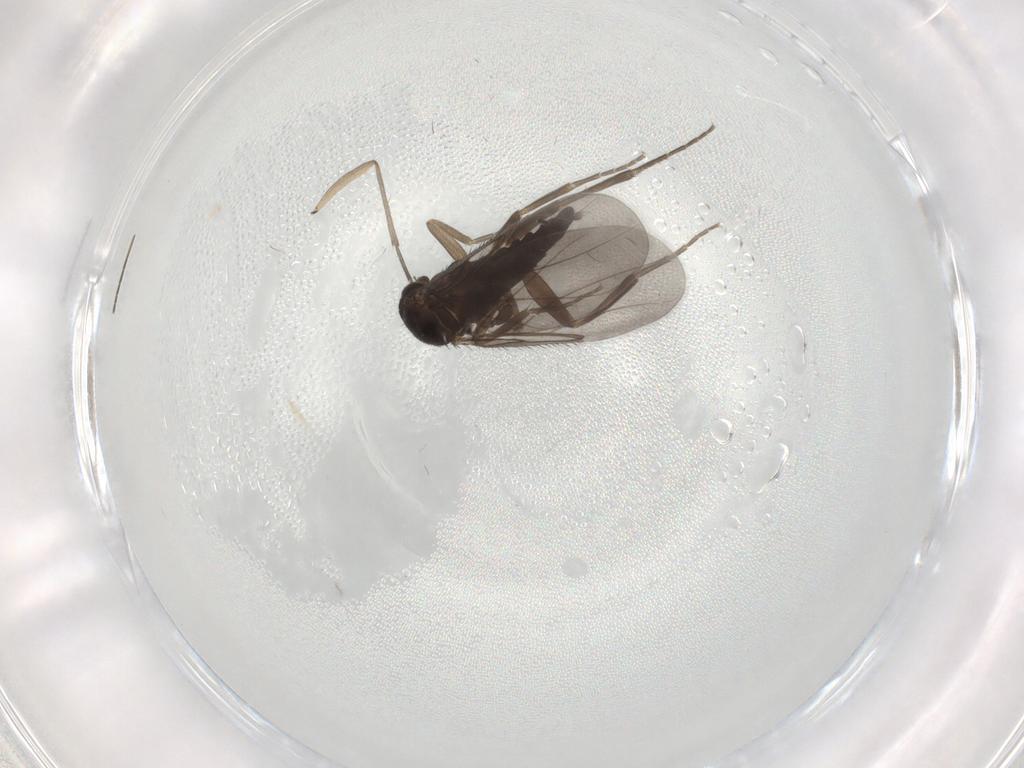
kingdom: Animalia
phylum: Arthropoda
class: Insecta
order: Diptera
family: Phoridae
